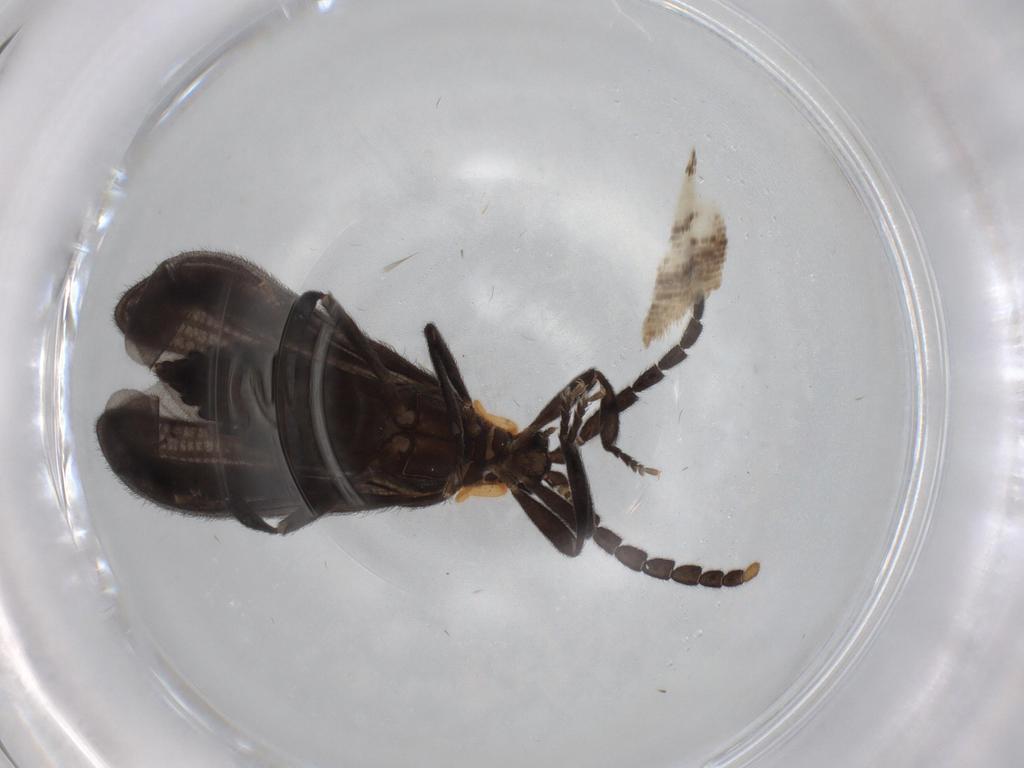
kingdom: Animalia
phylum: Arthropoda
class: Insecta
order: Coleoptera
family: Lycidae
